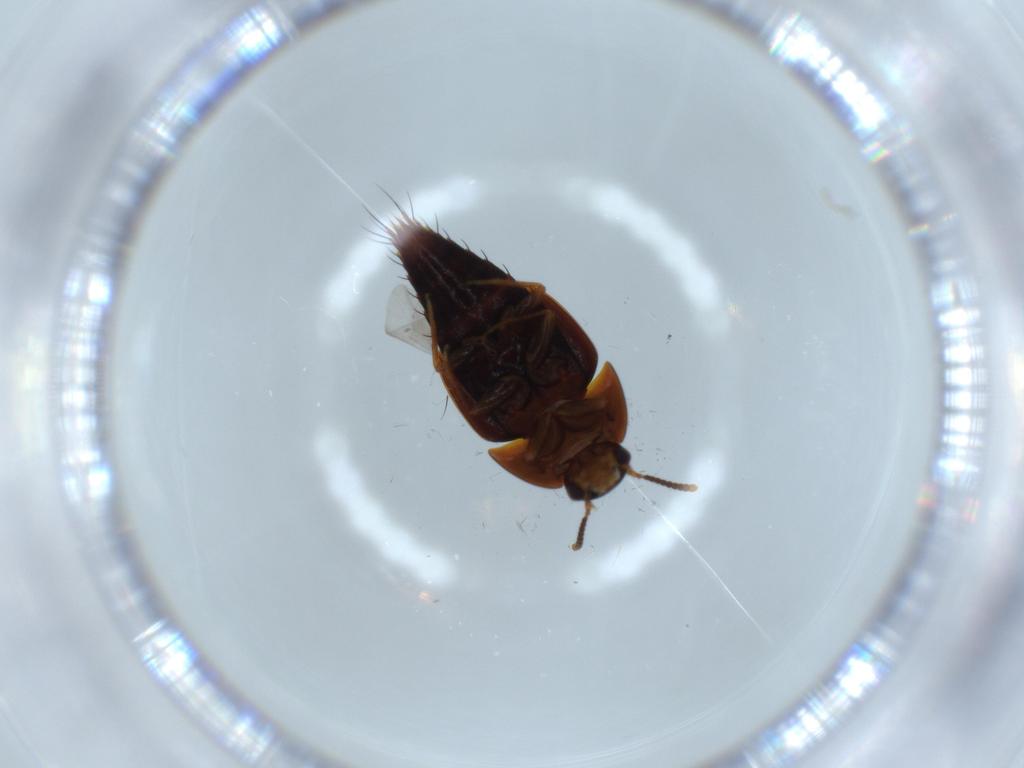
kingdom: Animalia
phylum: Arthropoda
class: Insecta
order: Coleoptera
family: Staphylinidae
